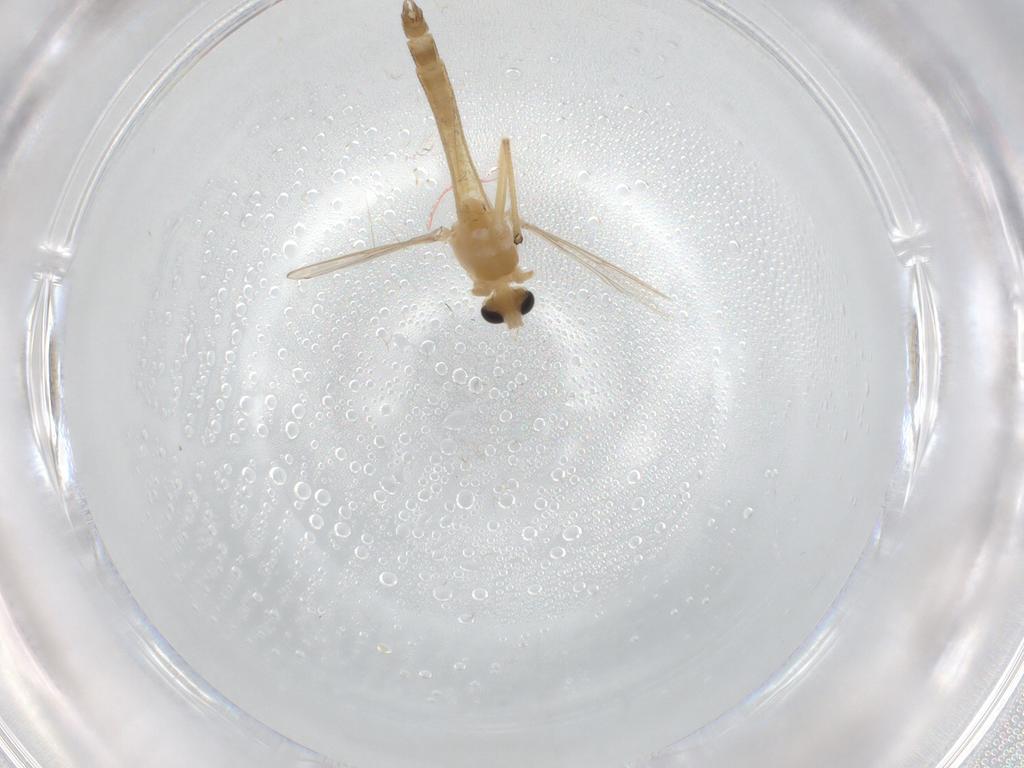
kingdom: Animalia
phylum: Arthropoda
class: Insecta
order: Diptera
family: Chironomidae
